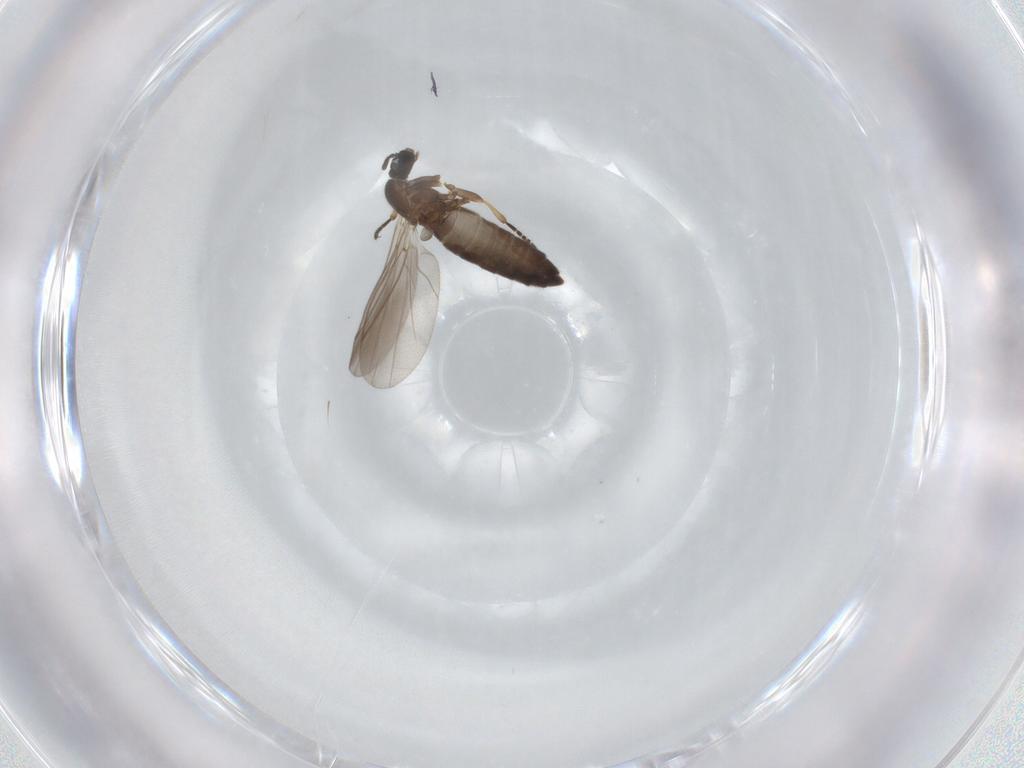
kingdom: Animalia
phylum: Arthropoda
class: Insecta
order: Diptera
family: Scatopsidae
